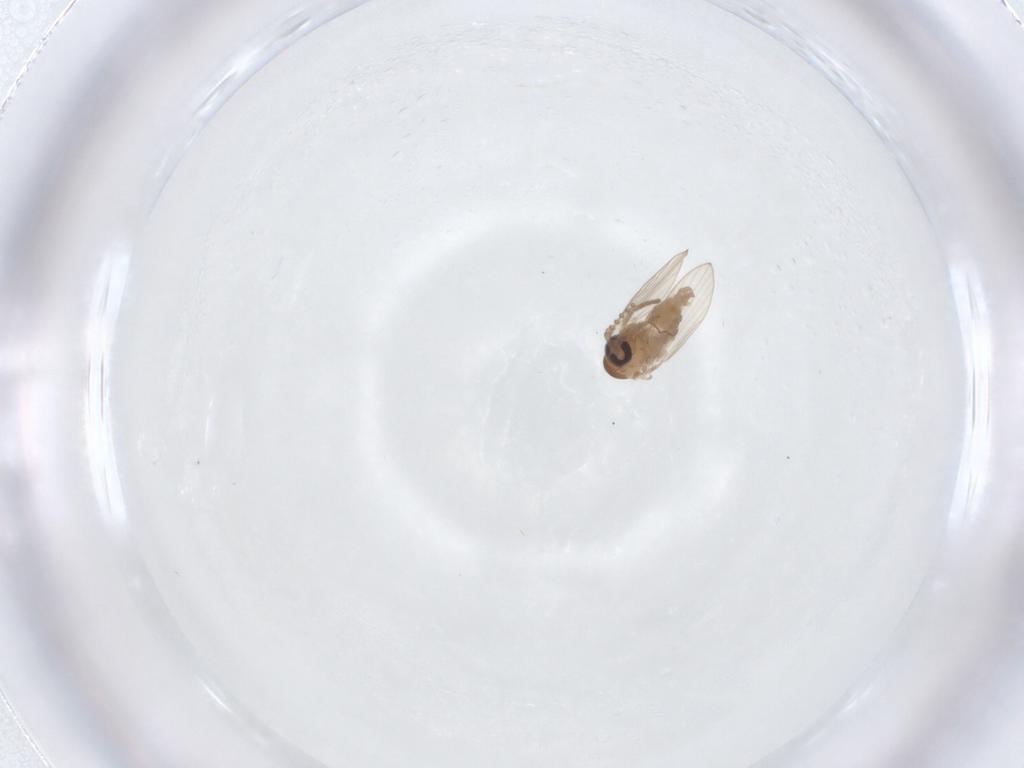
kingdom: Animalia
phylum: Arthropoda
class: Insecta
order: Diptera
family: Psychodidae
